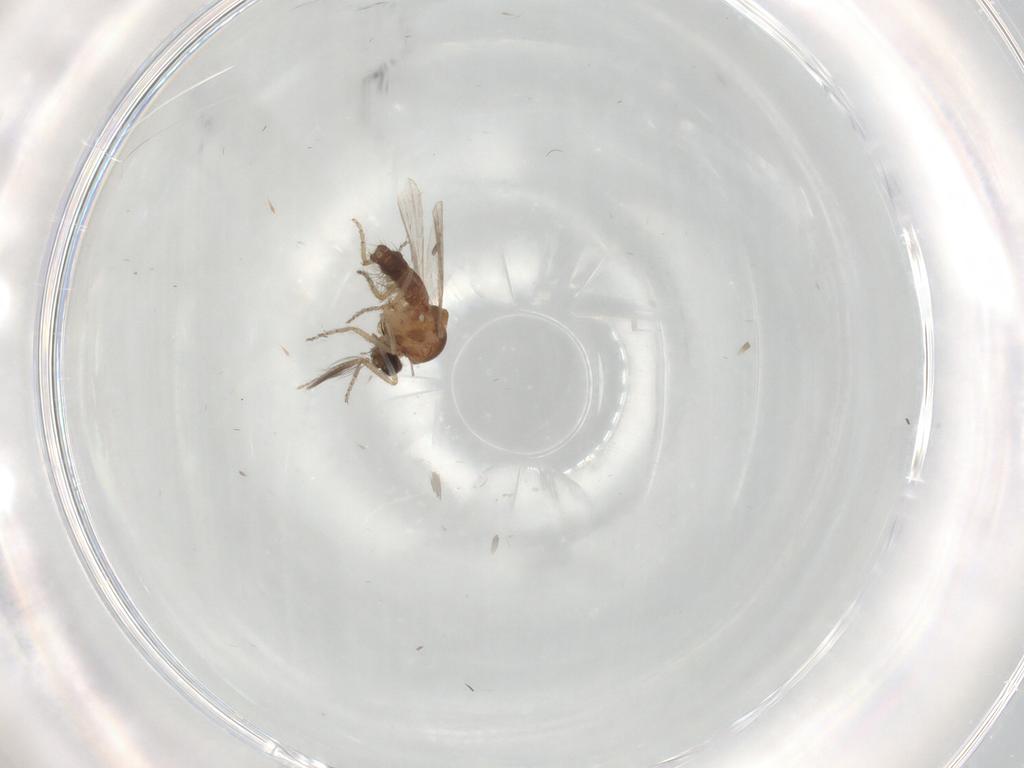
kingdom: Animalia
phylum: Arthropoda
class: Insecta
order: Diptera
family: Cecidomyiidae
